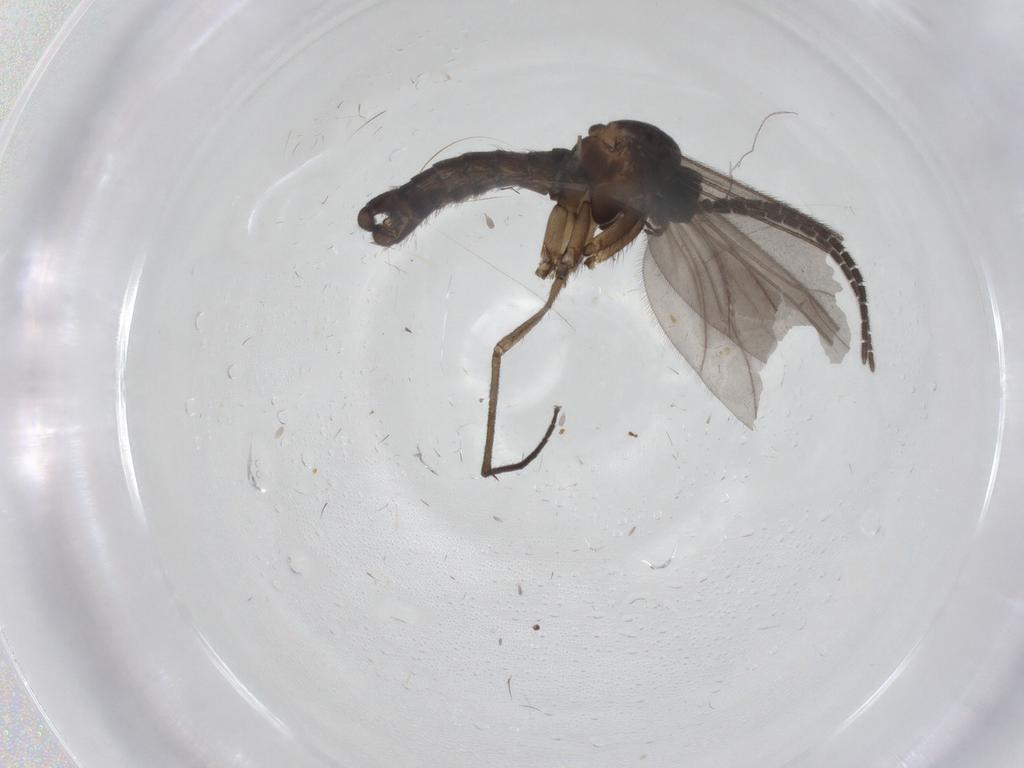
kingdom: Animalia
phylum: Arthropoda
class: Insecta
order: Diptera
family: Sciaridae
